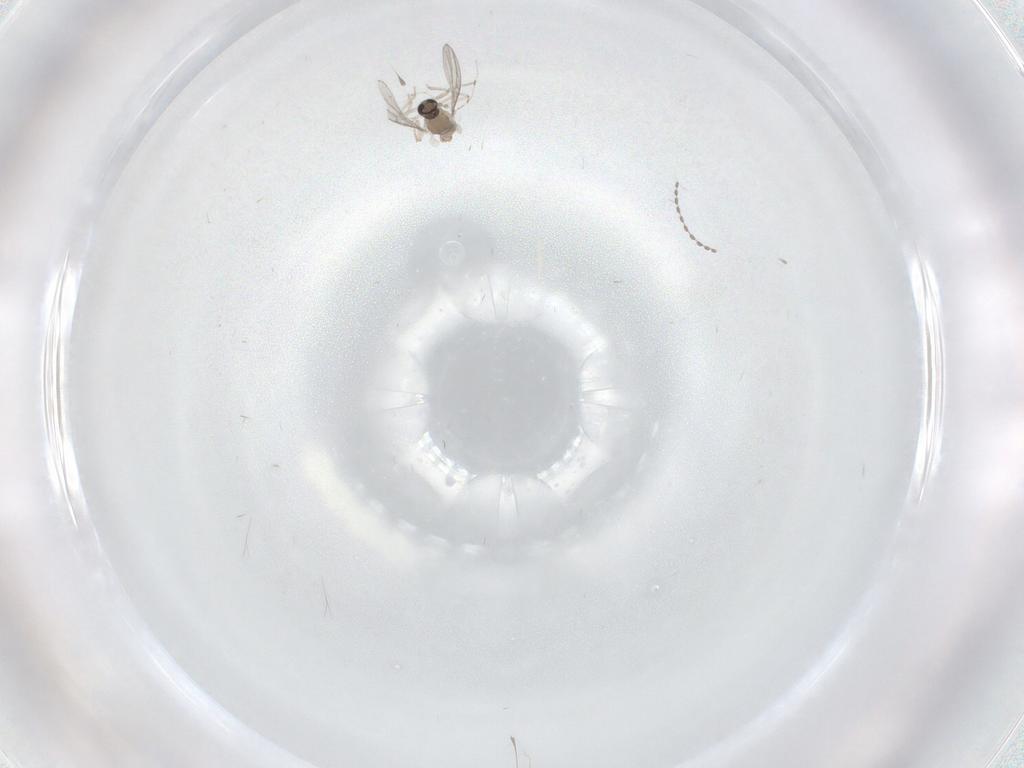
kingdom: Animalia
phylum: Arthropoda
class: Insecta
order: Diptera
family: Cecidomyiidae
